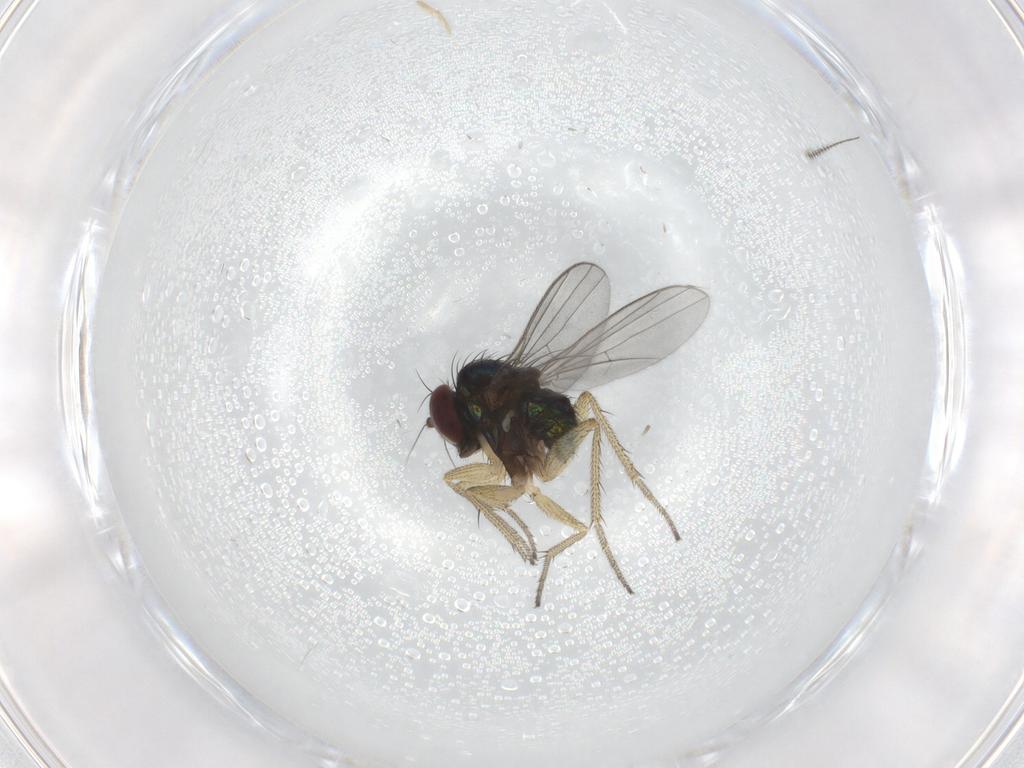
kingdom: Animalia
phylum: Arthropoda
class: Insecta
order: Diptera
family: Chironomidae
